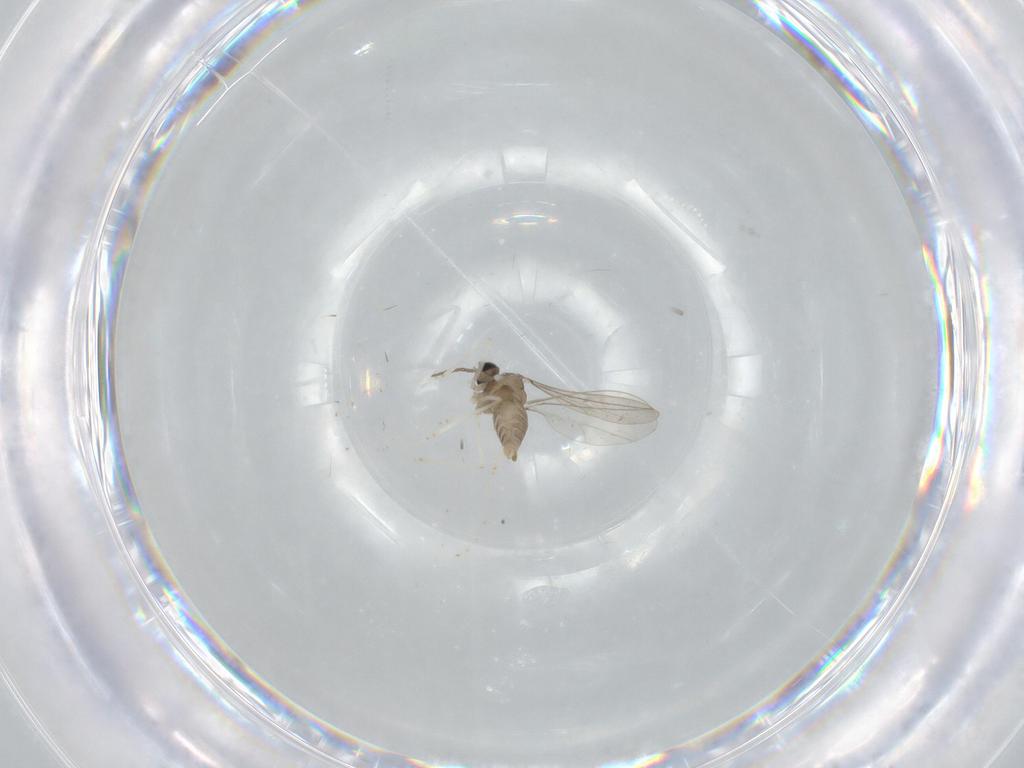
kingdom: Animalia
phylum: Arthropoda
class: Insecta
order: Diptera
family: Cecidomyiidae
